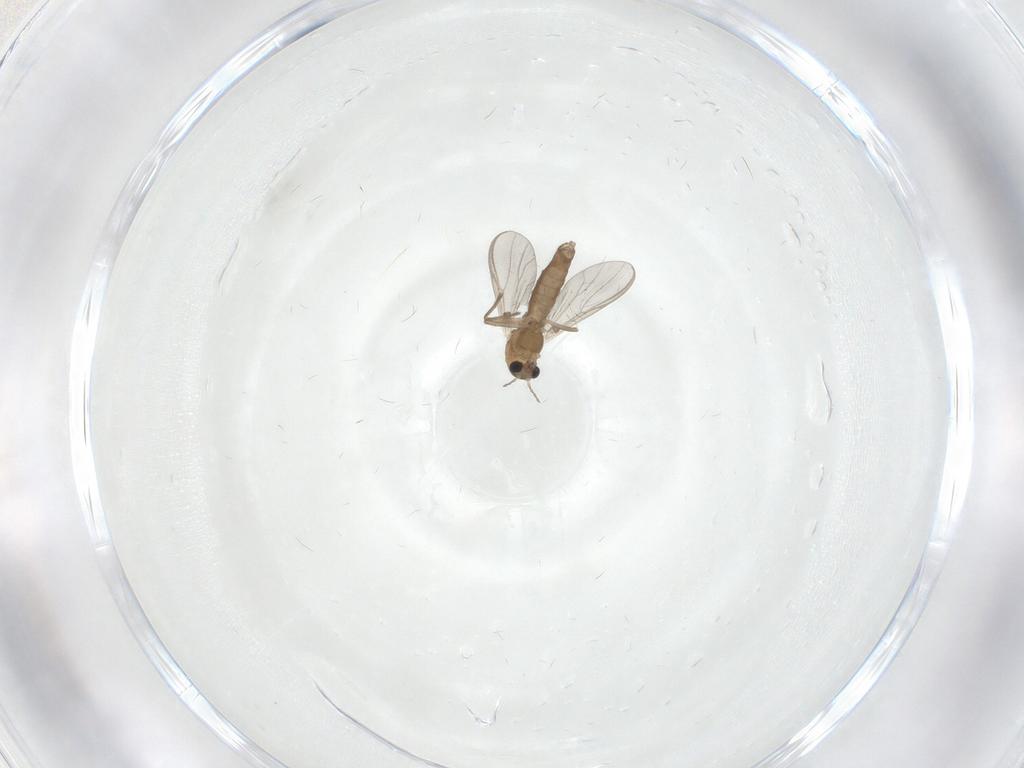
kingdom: Animalia
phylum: Arthropoda
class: Insecta
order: Diptera
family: Chironomidae
